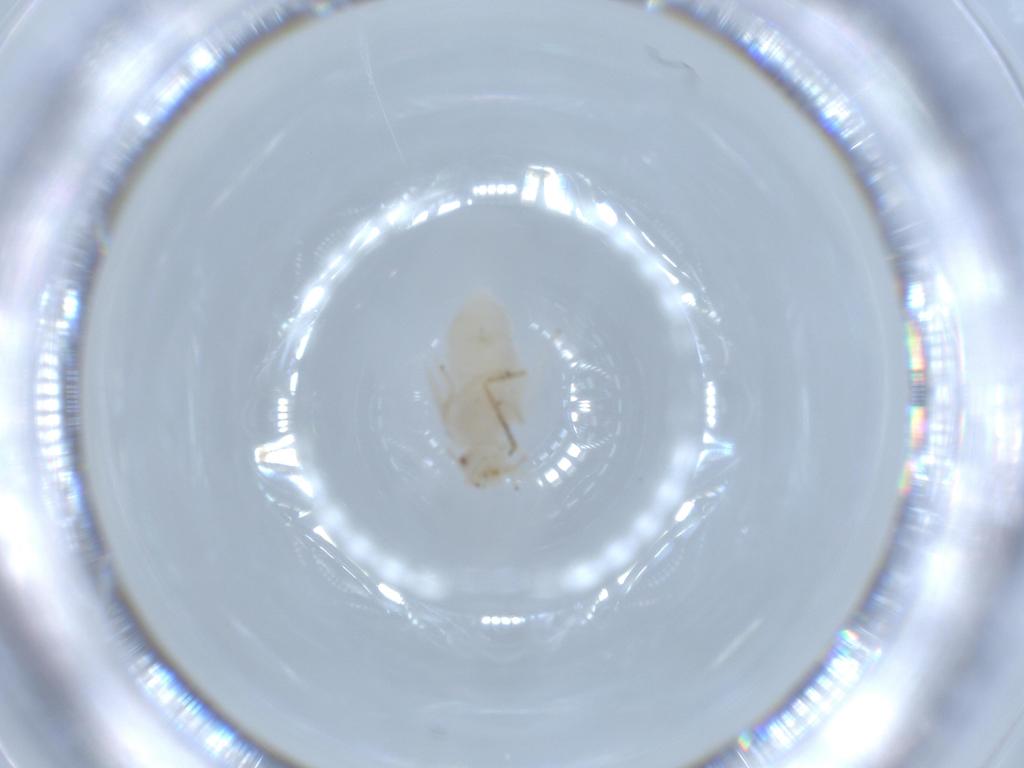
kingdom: Animalia
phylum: Arthropoda
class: Insecta
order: Psocodea
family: Caeciliusidae
